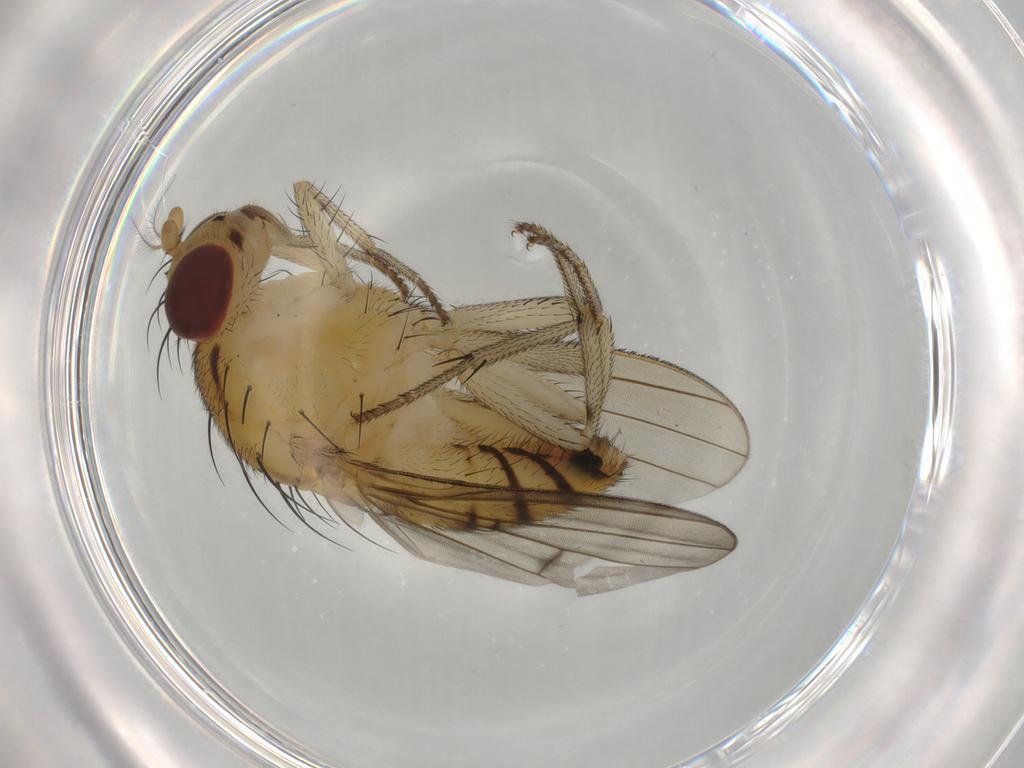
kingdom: Animalia
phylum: Arthropoda
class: Insecta
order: Diptera
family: Lauxaniidae
